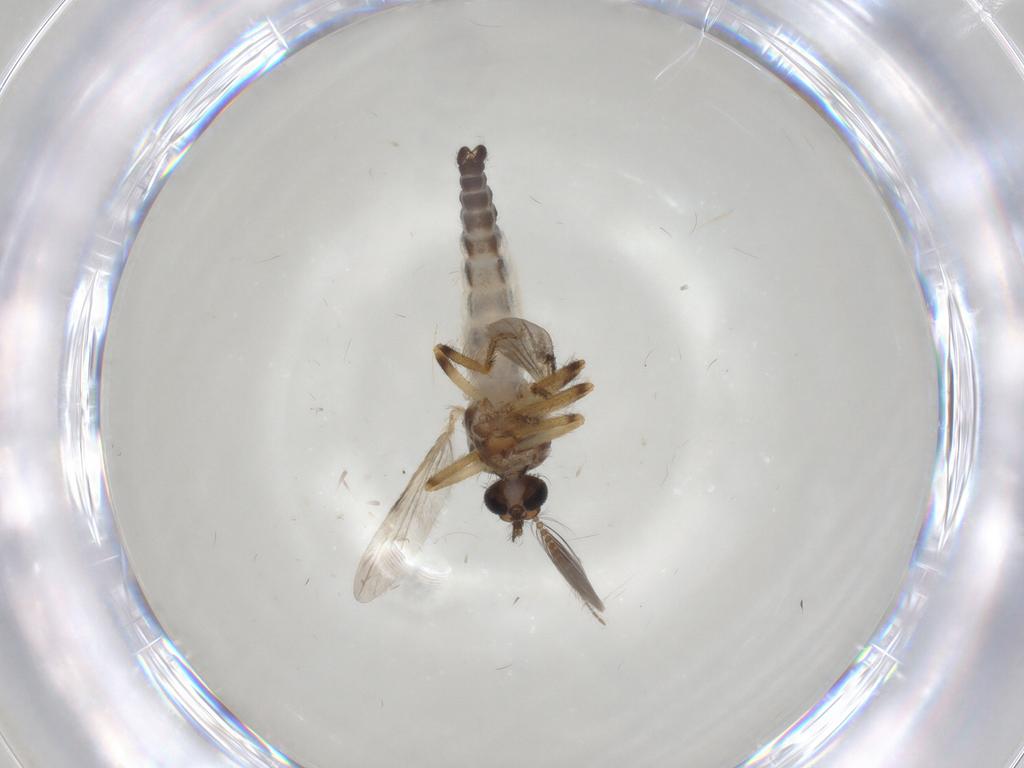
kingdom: Animalia
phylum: Arthropoda
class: Insecta
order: Diptera
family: Ceratopogonidae
